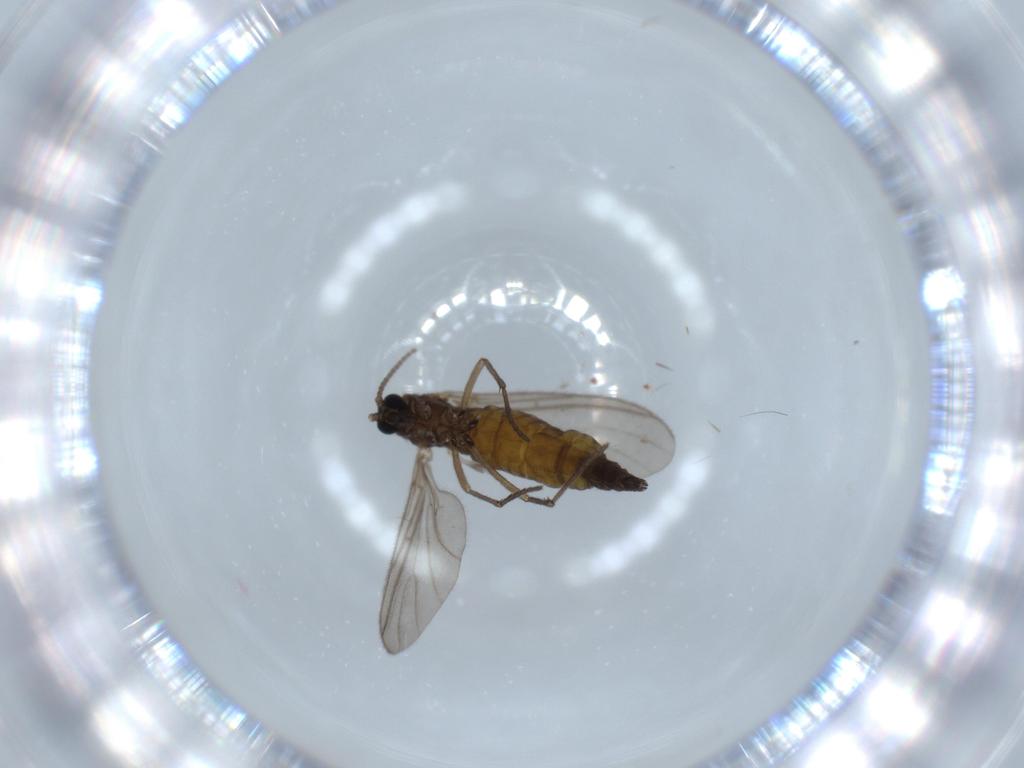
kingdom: Animalia
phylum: Arthropoda
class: Insecta
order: Diptera
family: Sciaridae
